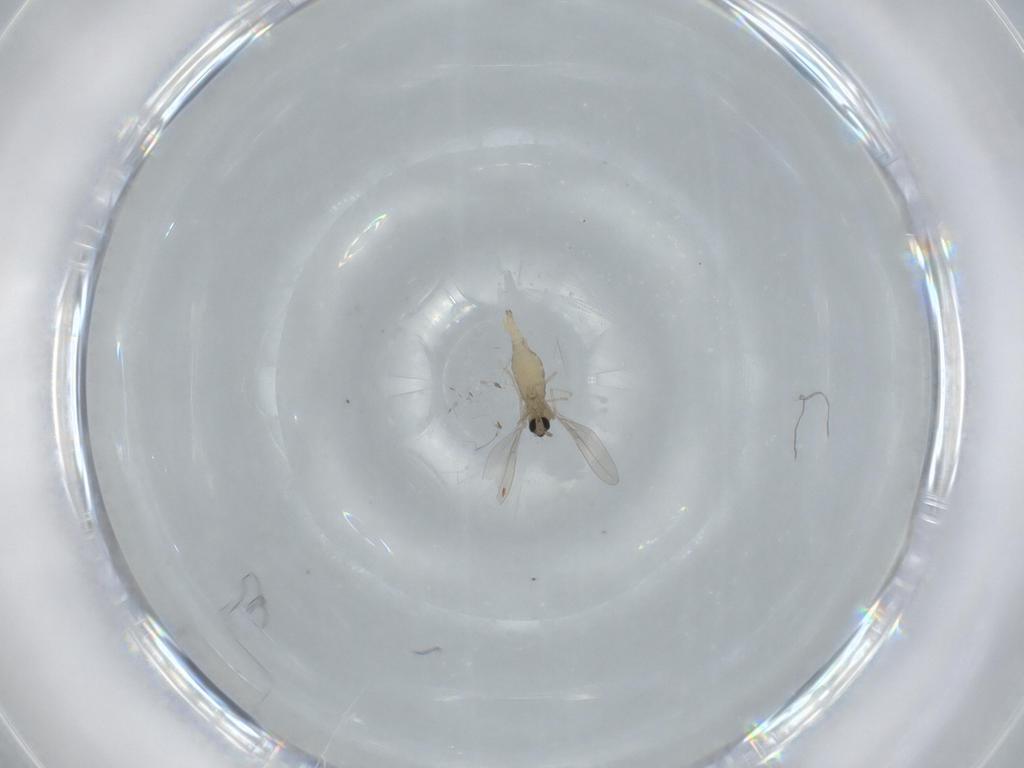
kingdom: Animalia
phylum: Arthropoda
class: Insecta
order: Diptera
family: Cecidomyiidae
